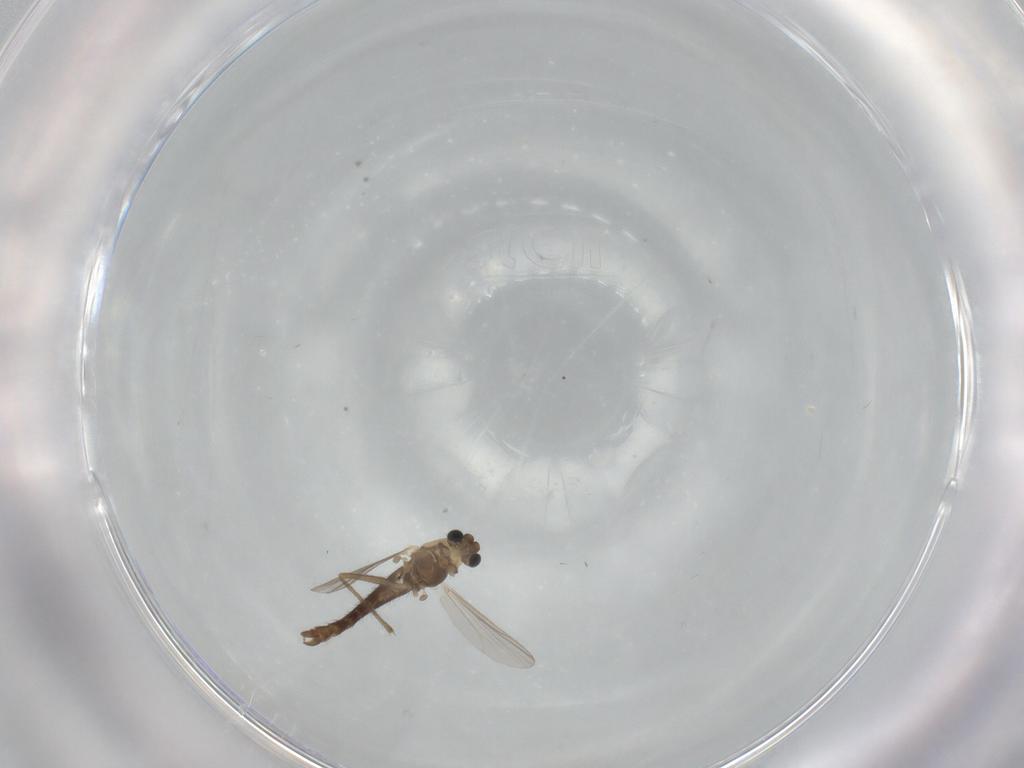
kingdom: Animalia
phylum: Arthropoda
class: Insecta
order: Diptera
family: Chironomidae
